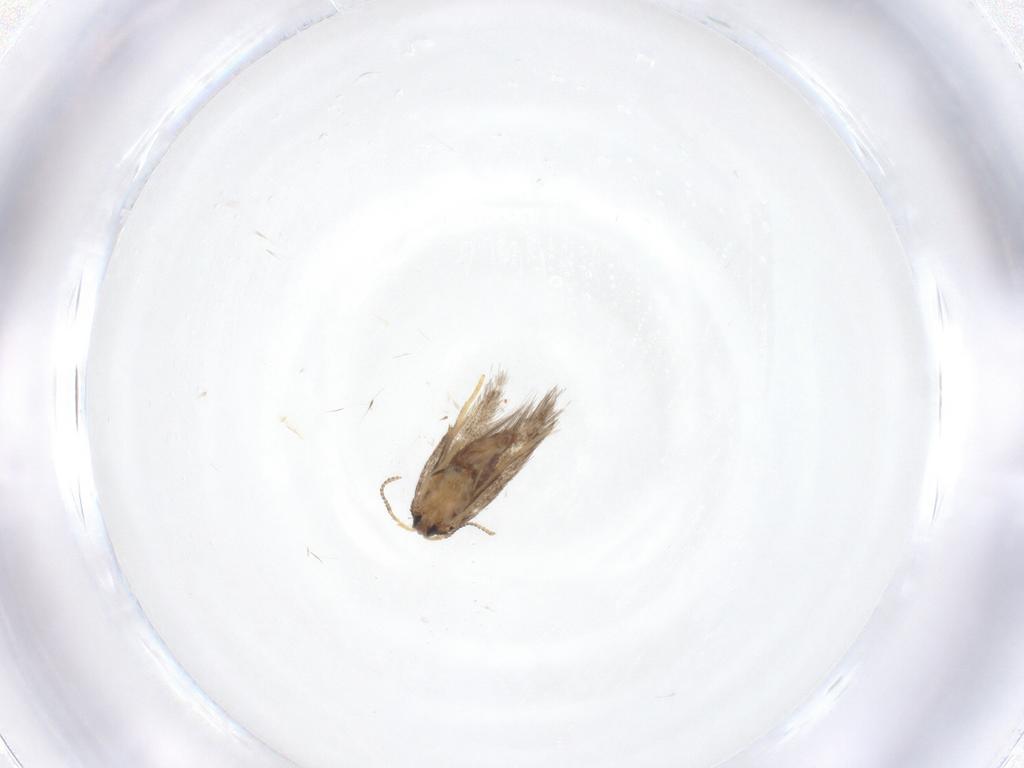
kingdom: Animalia
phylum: Arthropoda
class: Insecta
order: Lepidoptera
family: Nepticulidae
